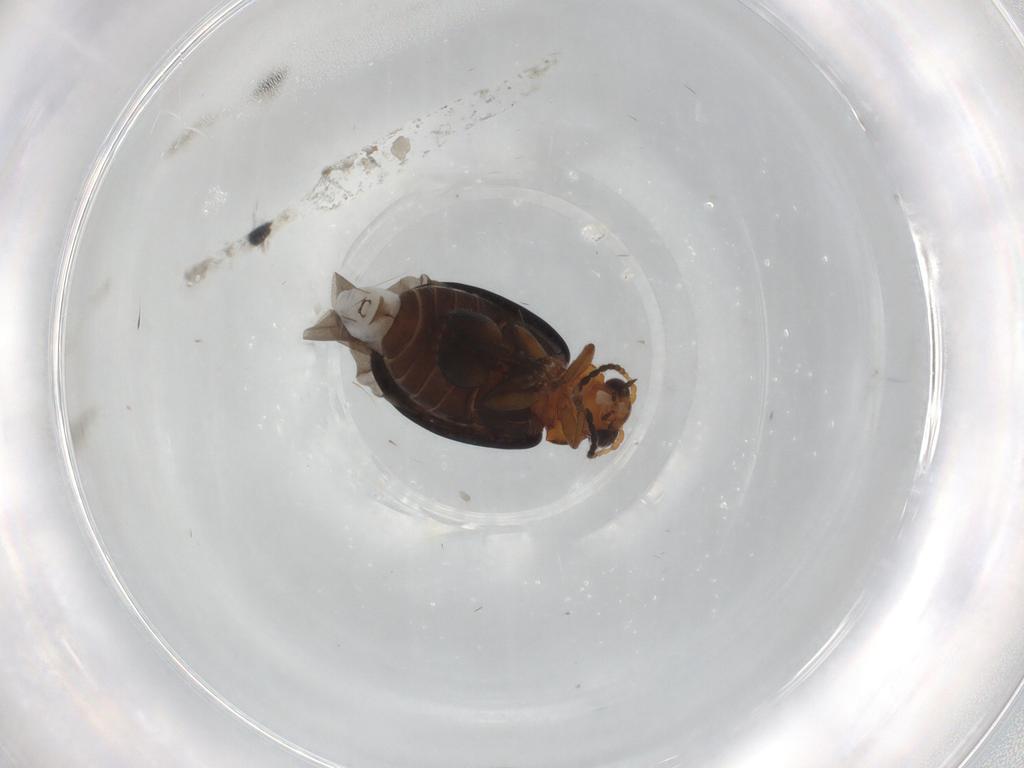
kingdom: Animalia
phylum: Arthropoda
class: Insecta
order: Coleoptera
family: Chrysomelidae
